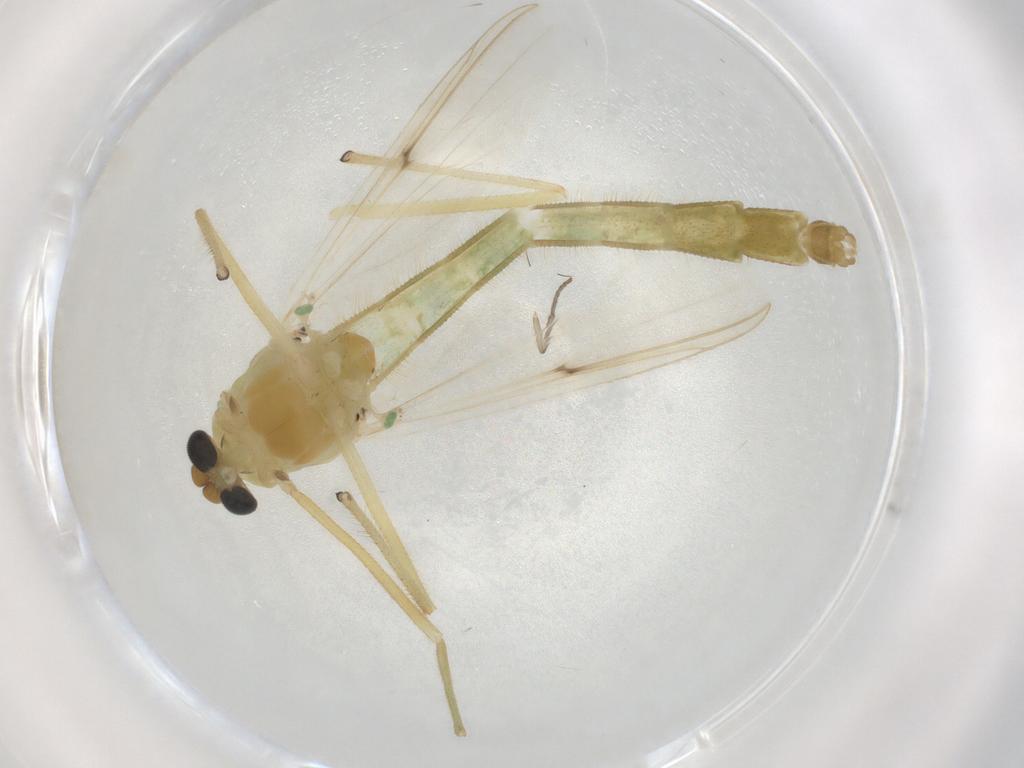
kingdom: Animalia
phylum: Arthropoda
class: Insecta
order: Diptera
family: Chironomidae
